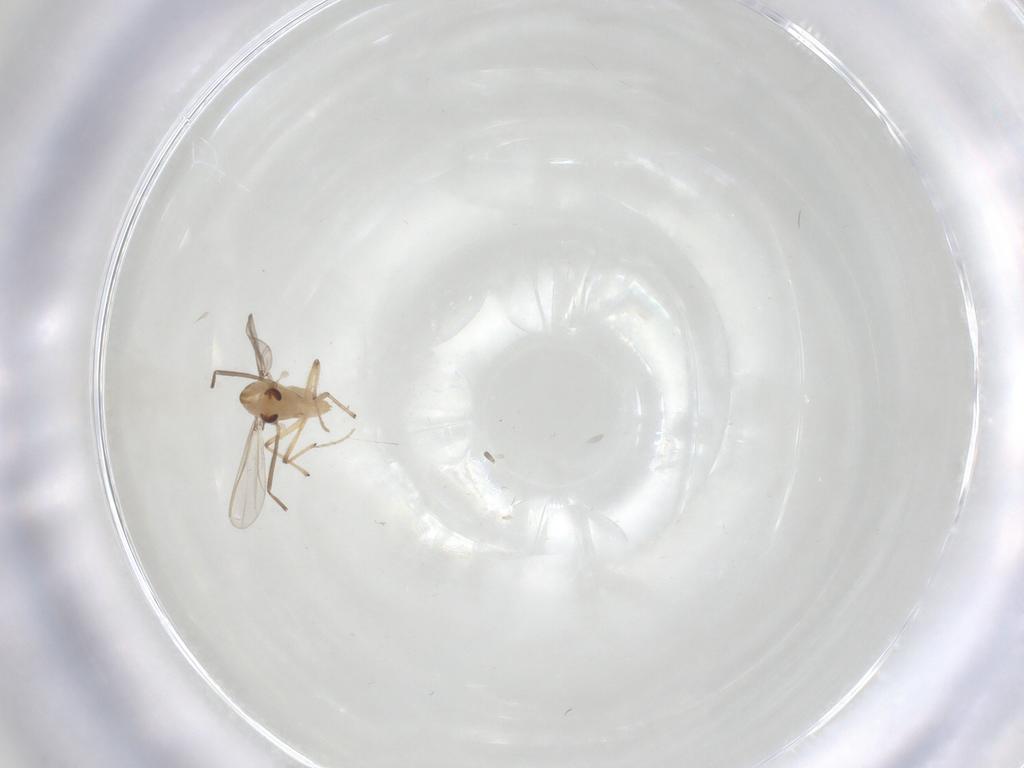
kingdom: Animalia
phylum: Arthropoda
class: Insecta
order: Diptera
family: Chironomidae
